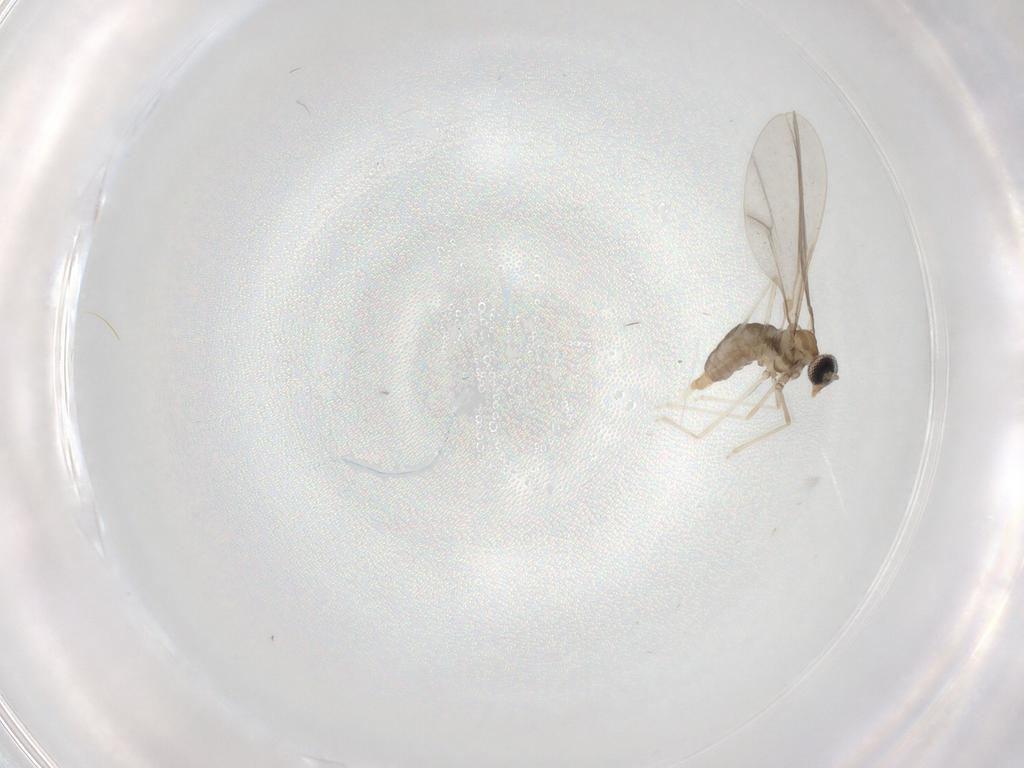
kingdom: Animalia
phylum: Arthropoda
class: Insecta
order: Diptera
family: Cecidomyiidae
